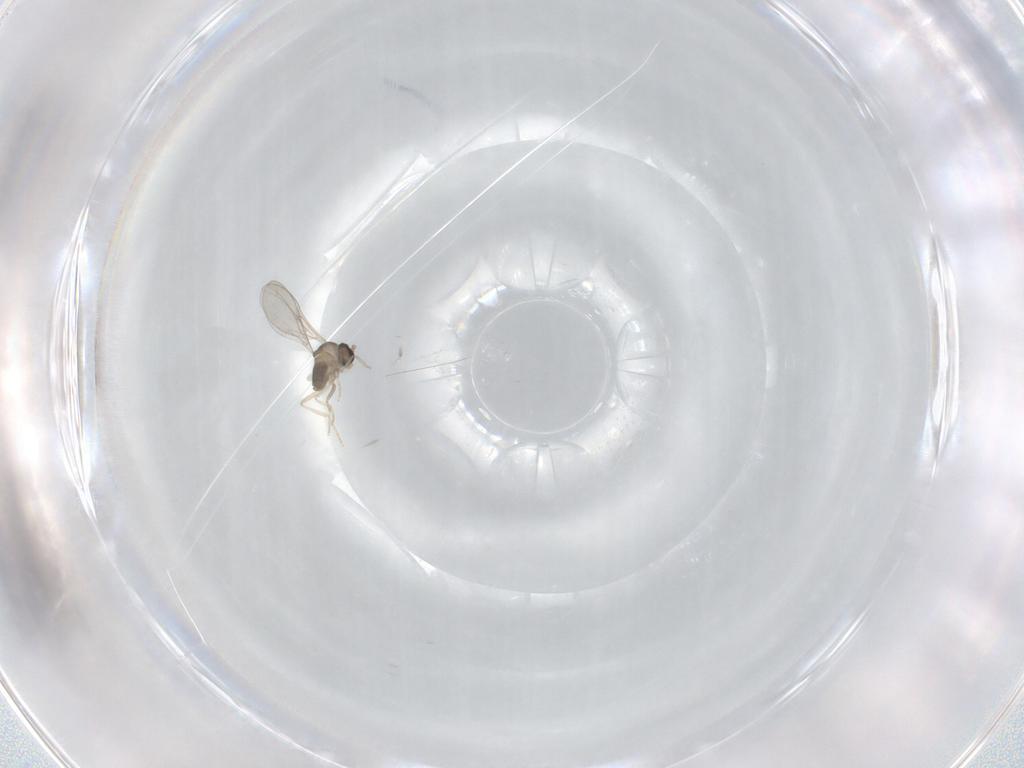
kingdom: Animalia
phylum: Arthropoda
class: Insecta
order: Diptera
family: Cecidomyiidae
